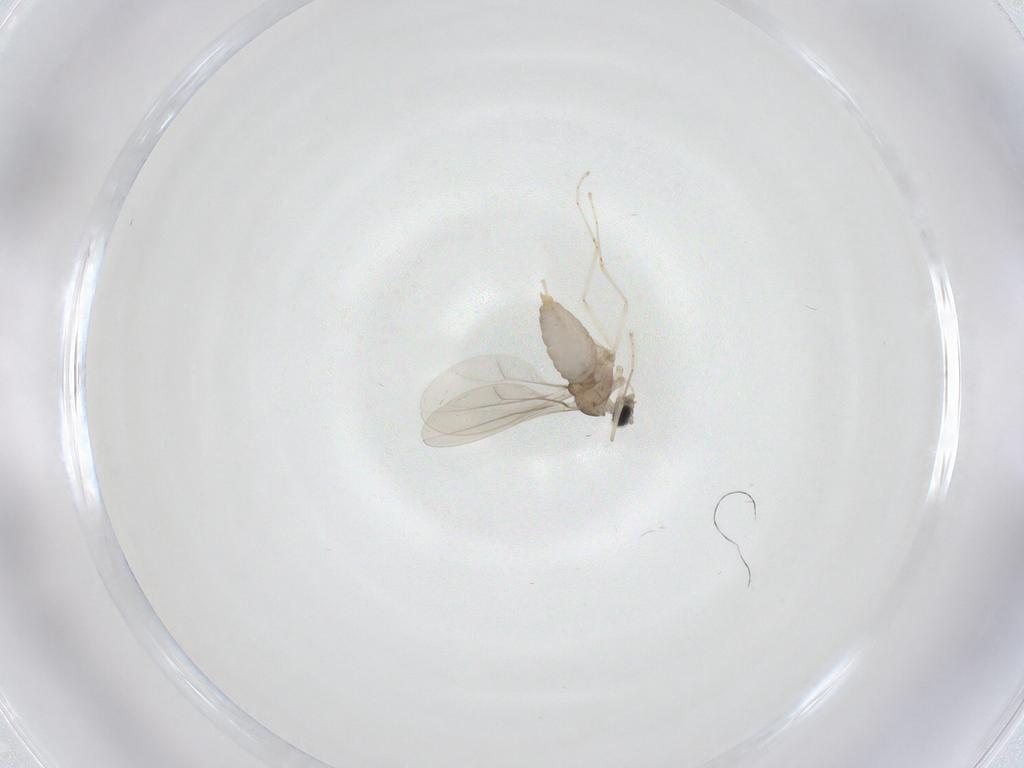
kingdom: Animalia
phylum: Arthropoda
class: Insecta
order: Diptera
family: Cecidomyiidae
